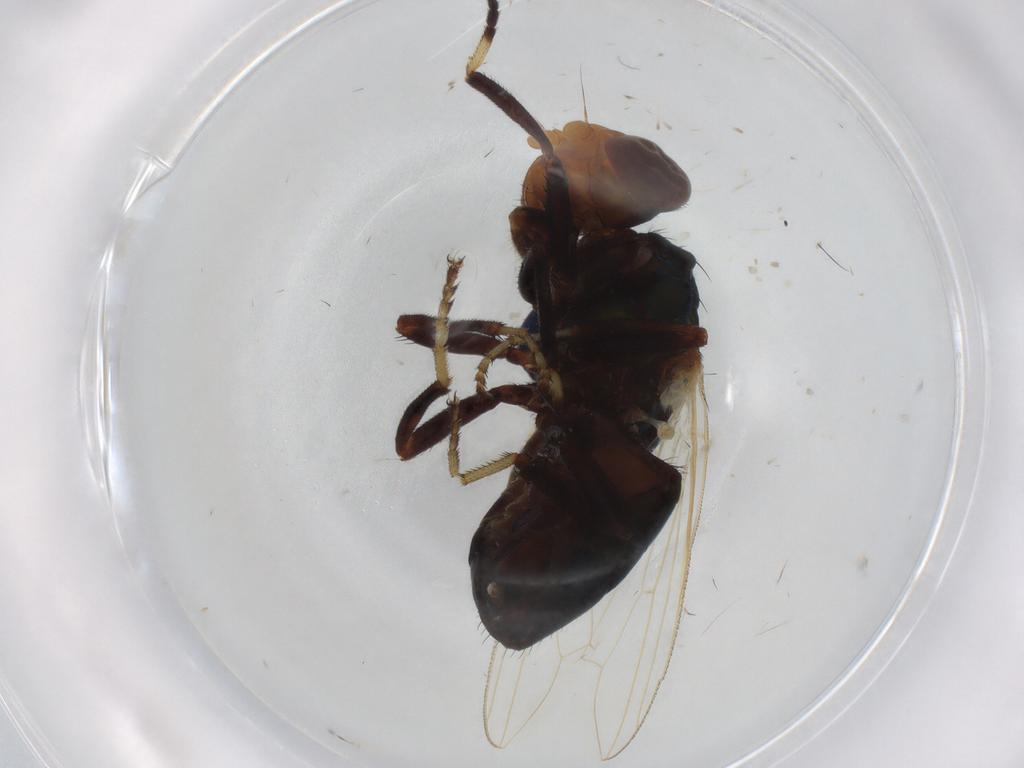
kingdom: Animalia
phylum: Arthropoda
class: Insecta
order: Diptera
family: Ulidiidae
